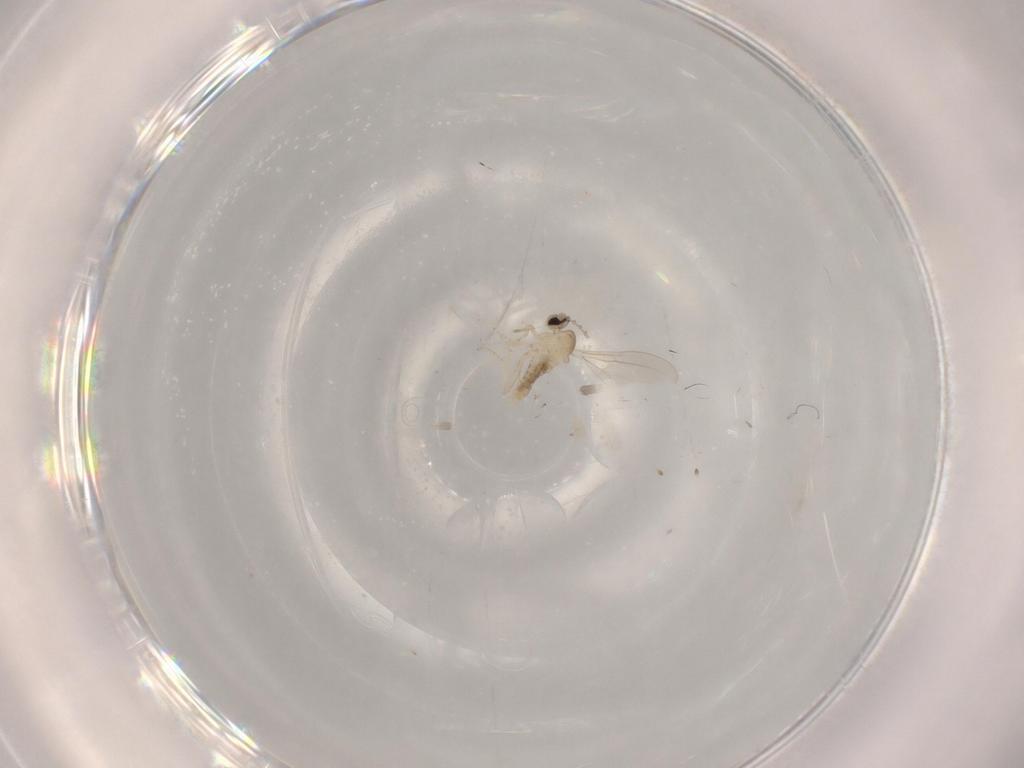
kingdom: Animalia
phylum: Arthropoda
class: Insecta
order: Diptera
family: Cecidomyiidae
